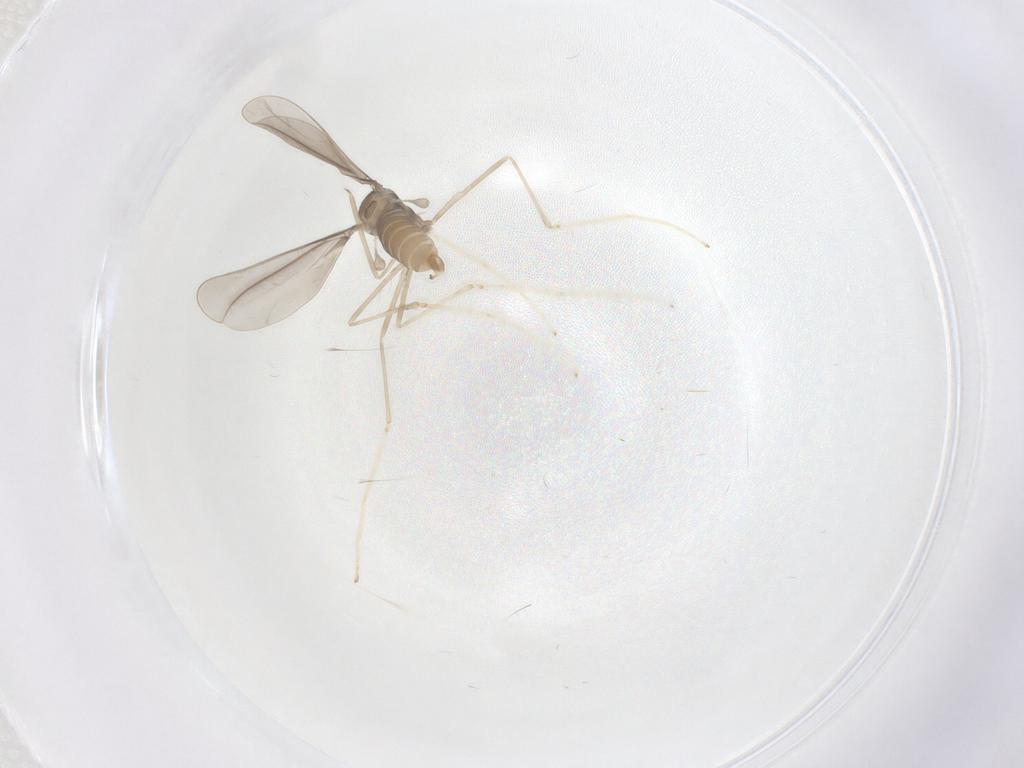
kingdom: Animalia
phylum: Arthropoda
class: Insecta
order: Diptera
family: Cecidomyiidae
